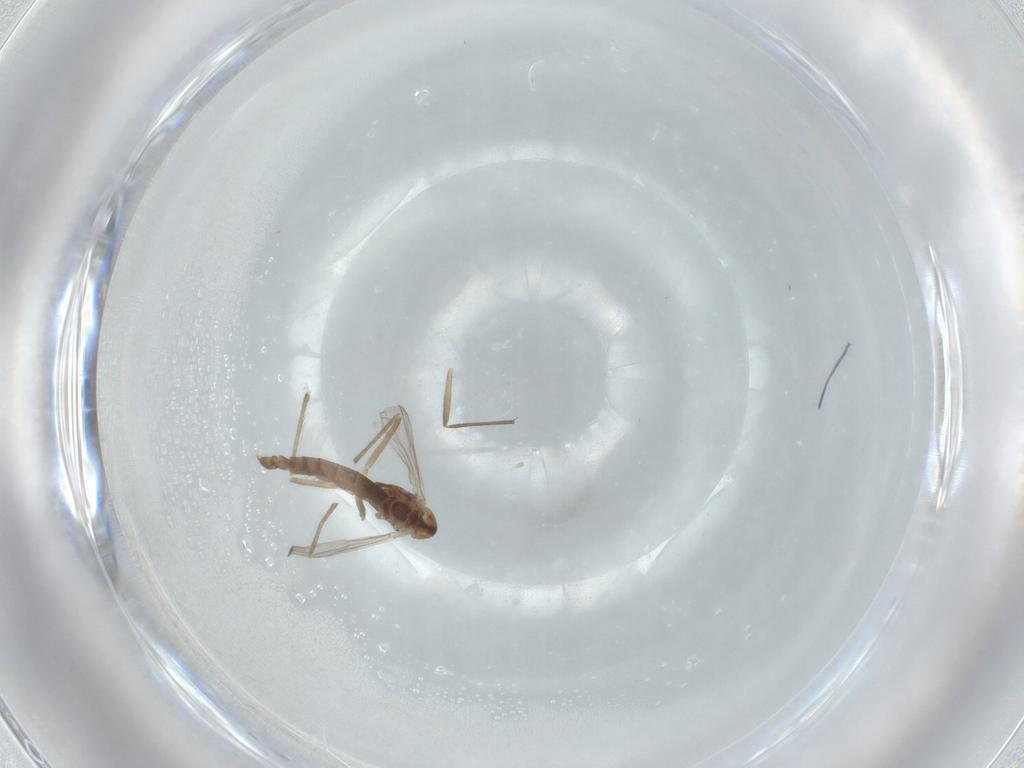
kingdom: Animalia
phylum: Arthropoda
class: Insecta
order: Diptera
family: Chironomidae
